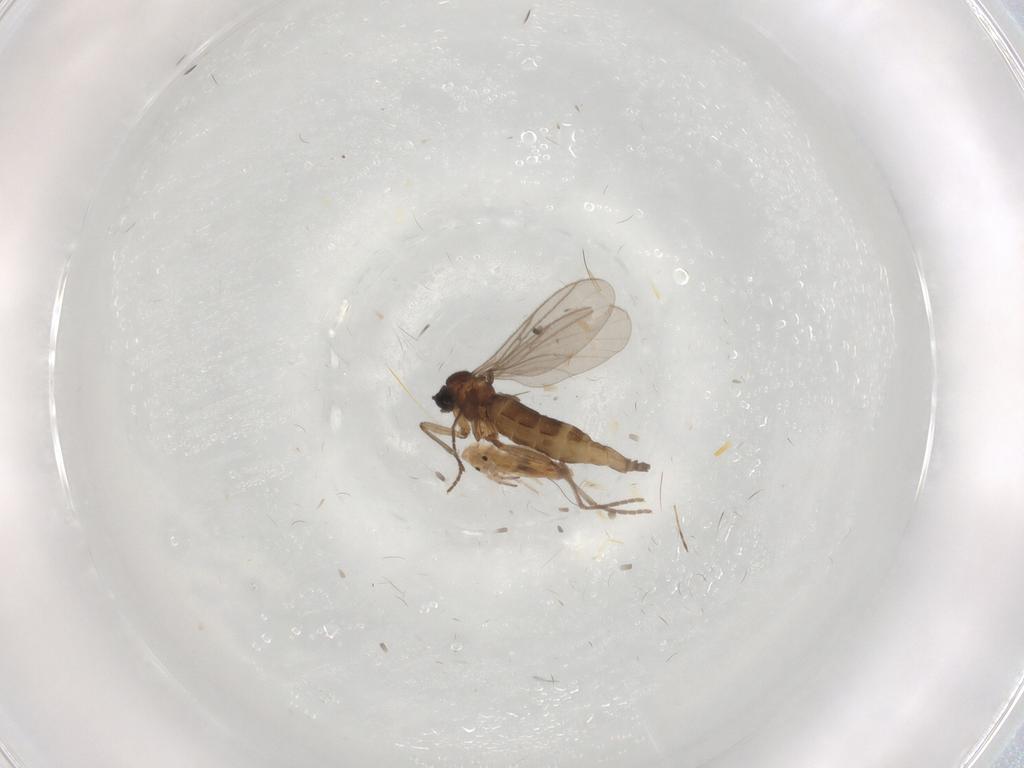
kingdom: Animalia
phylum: Arthropoda
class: Insecta
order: Diptera
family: Sciaridae
